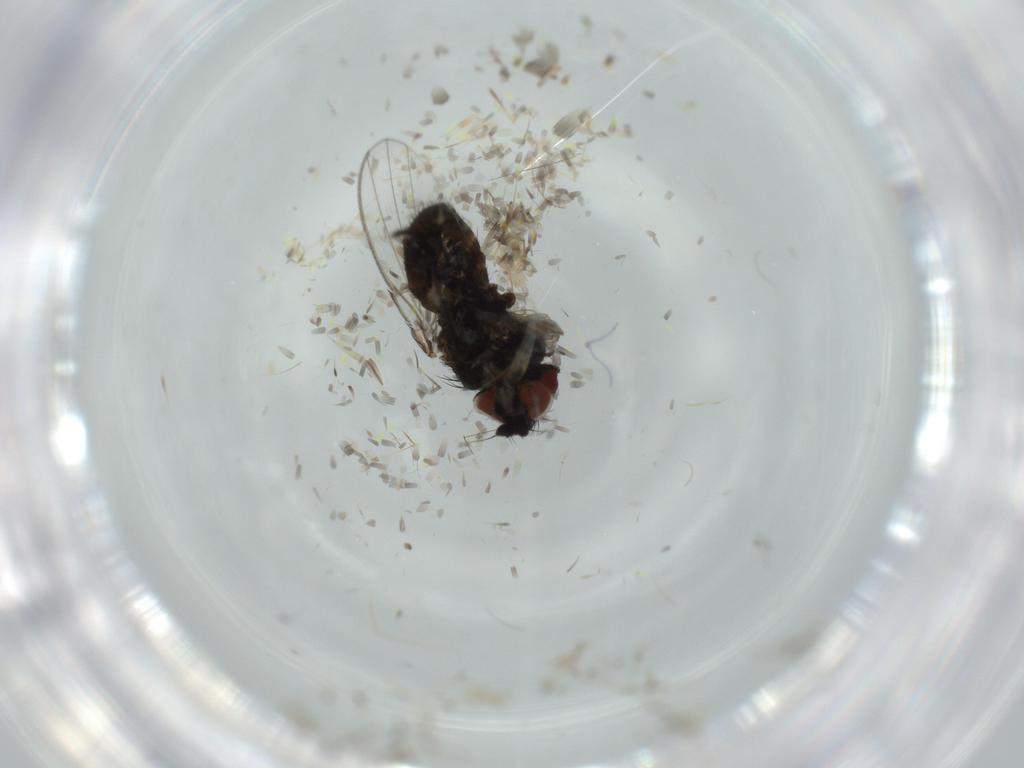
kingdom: Animalia
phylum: Arthropoda
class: Insecta
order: Diptera
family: Milichiidae
